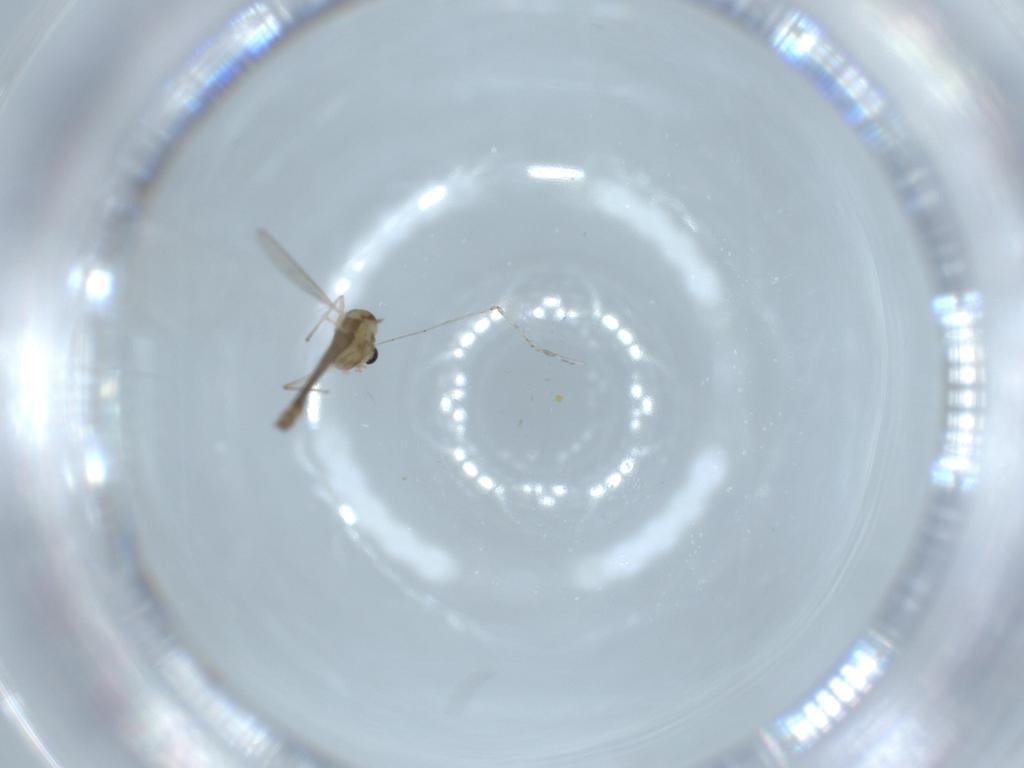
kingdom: Animalia
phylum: Arthropoda
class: Insecta
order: Diptera
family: Chironomidae
